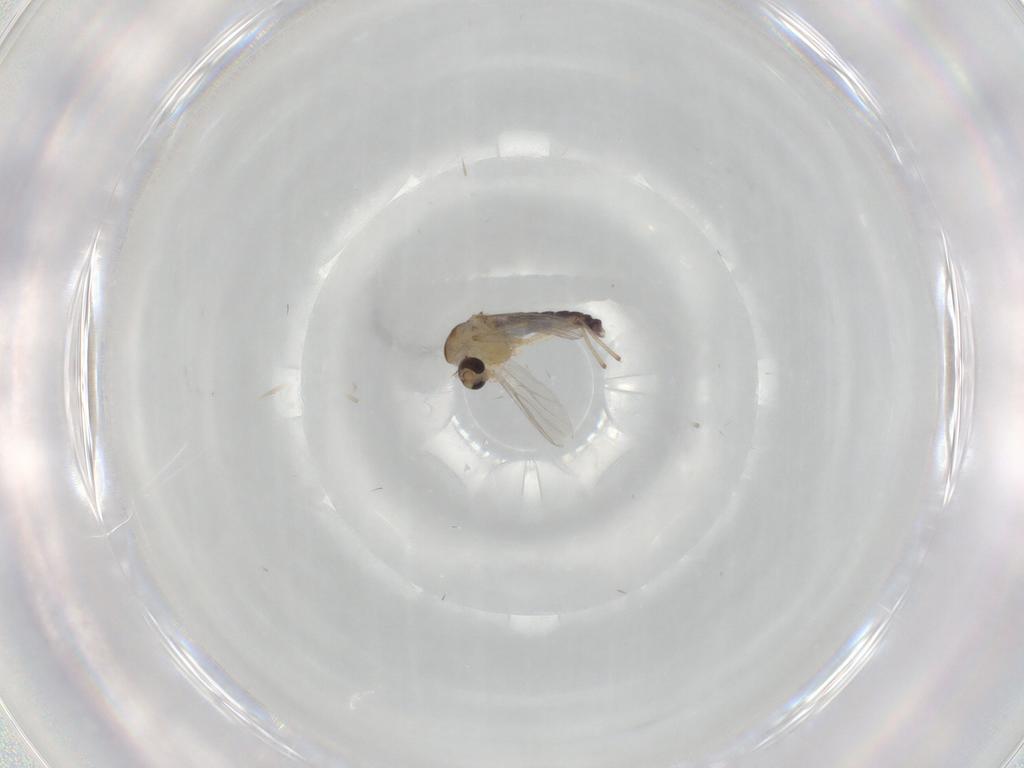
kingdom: Animalia
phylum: Arthropoda
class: Insecta
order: Diptera
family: Chironomidae
